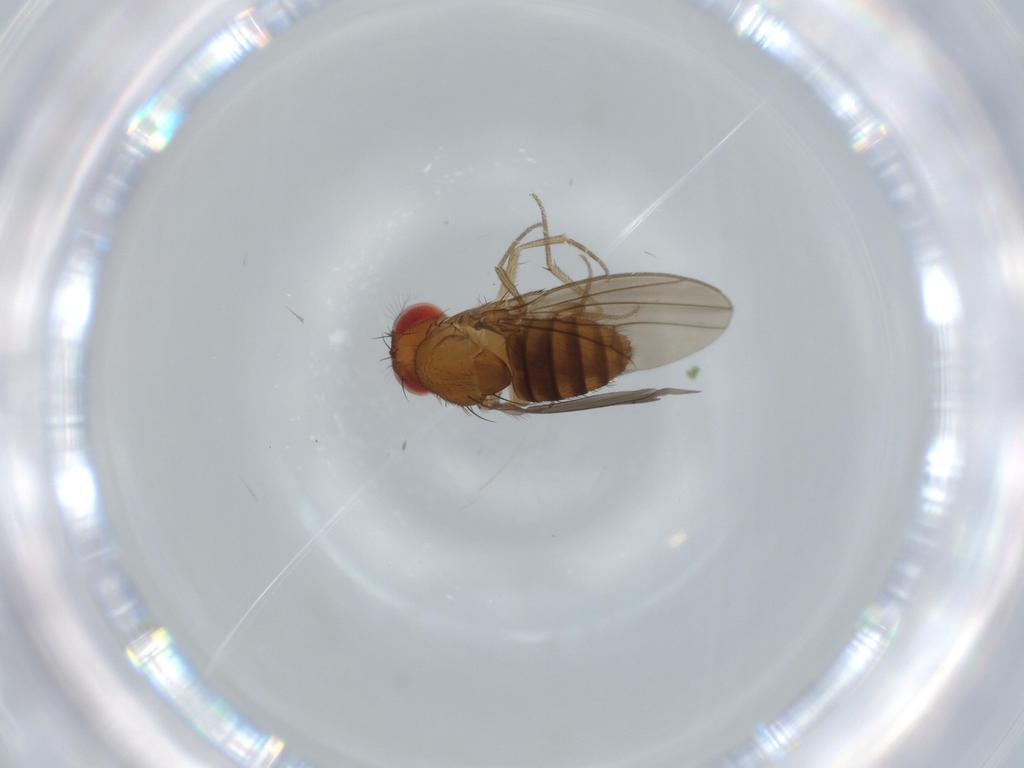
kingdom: Animalia
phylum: Arthropoda
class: Insecta
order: Diptera
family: Drosophilidae
